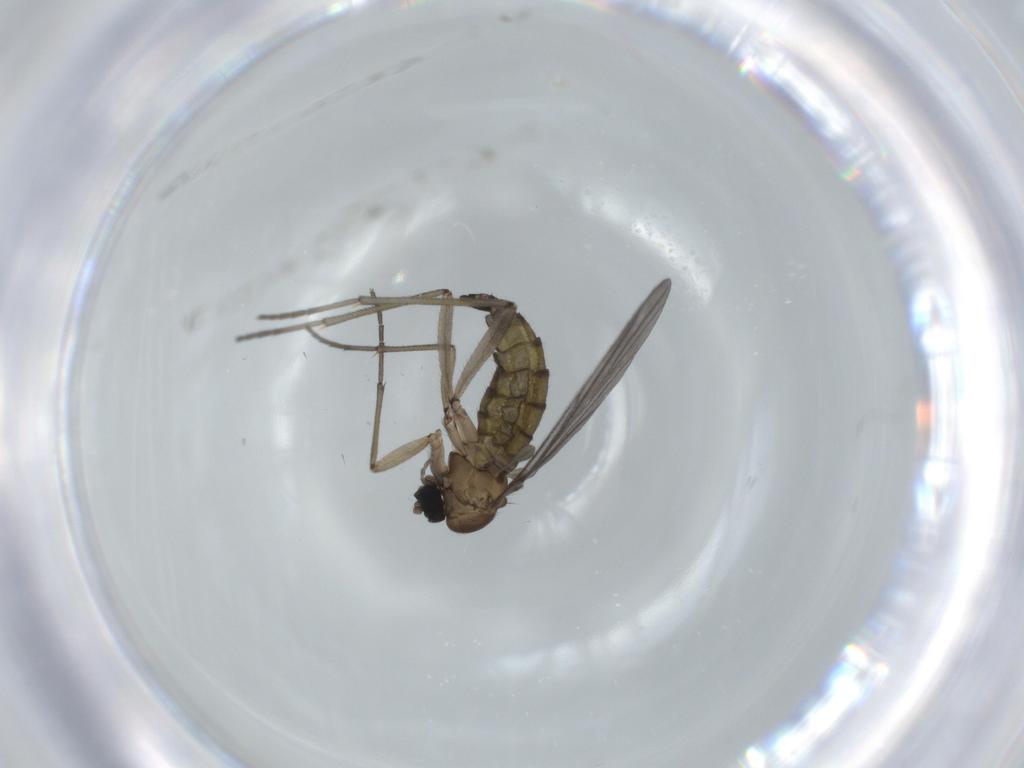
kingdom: Animalia
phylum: Arthropoda
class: Insecta
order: Diptera
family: Sciaridae
